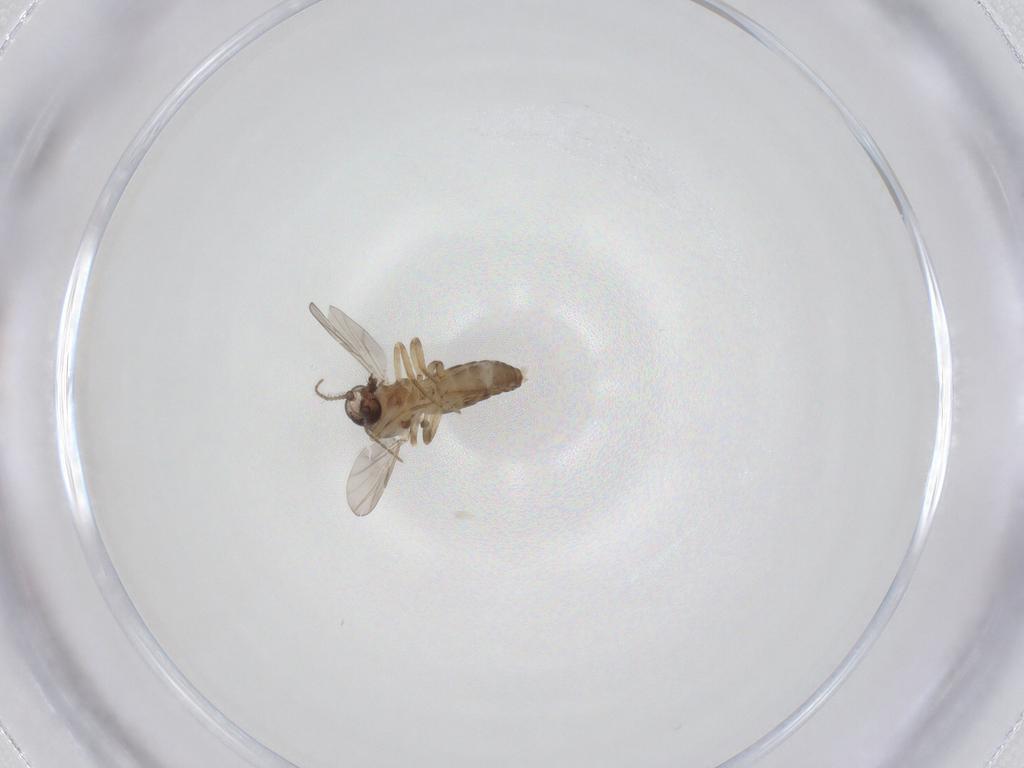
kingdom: Animalia
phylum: Arthropoda
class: Insecta
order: Diptera
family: Ceratopogonidae
